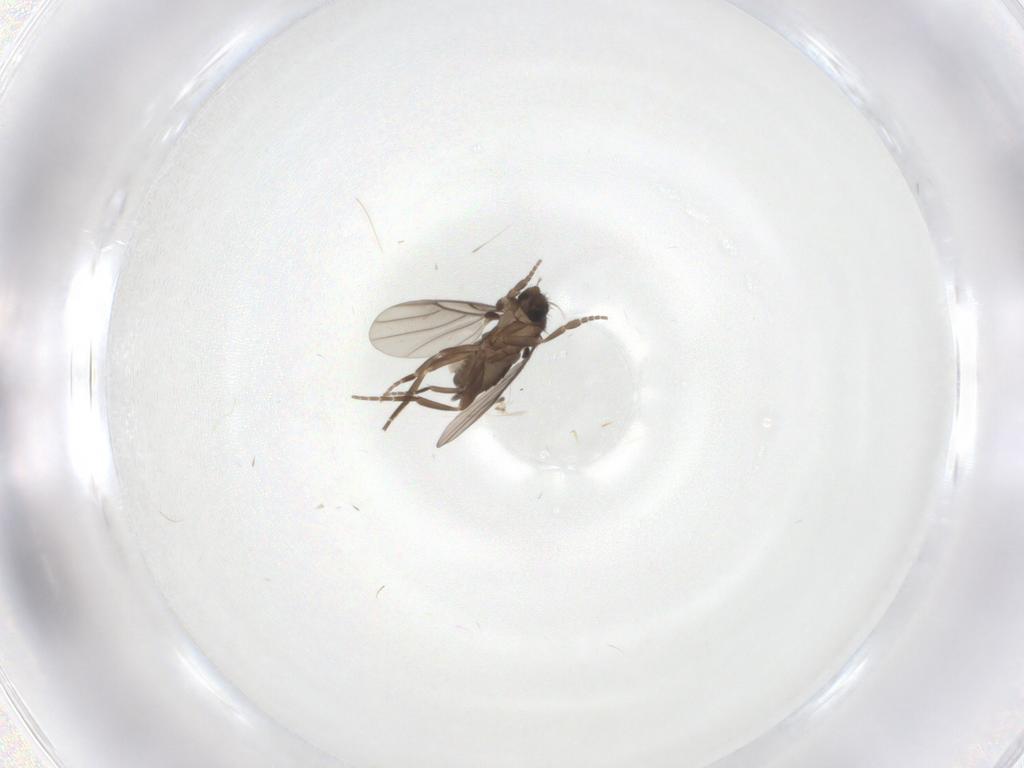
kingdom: Animalia
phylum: Arthropoda
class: Insecta
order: Diptera
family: Phoridae
